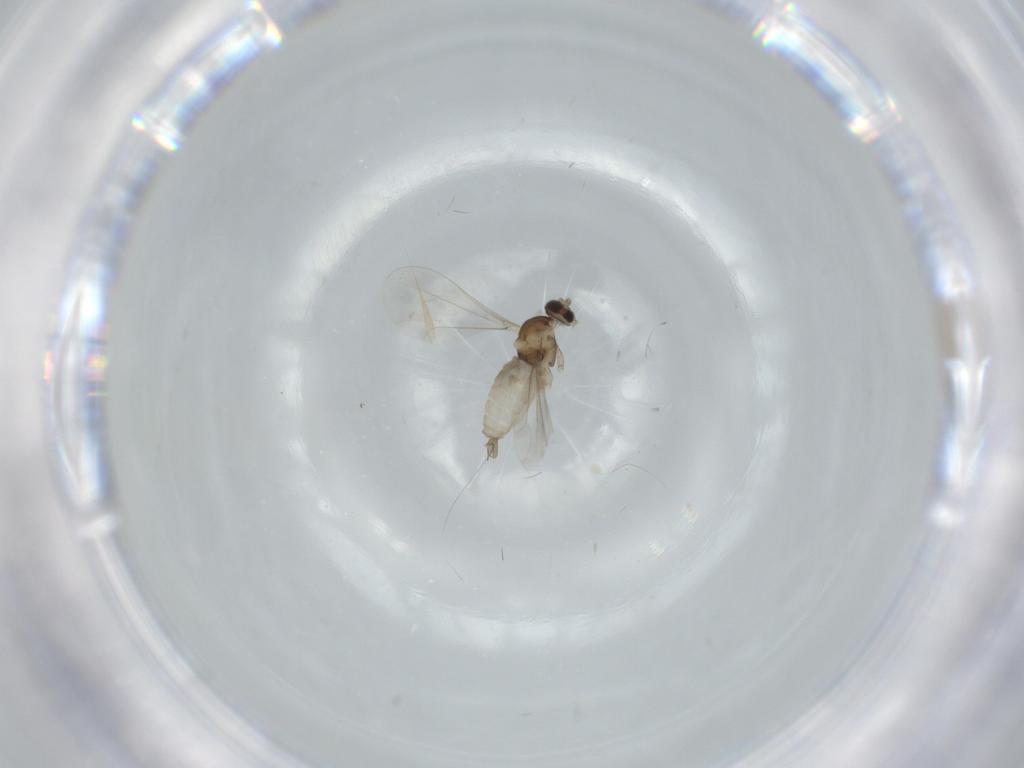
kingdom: Animalia
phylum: Arthropoda
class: Insecta
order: Diptera
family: Tabanidae
